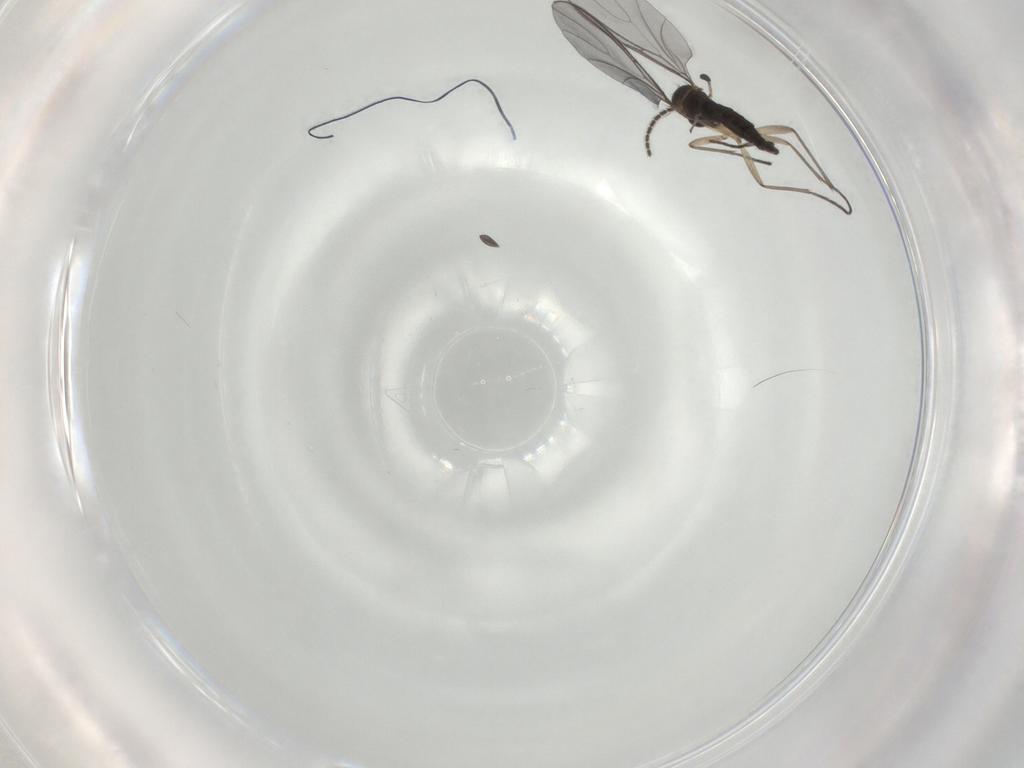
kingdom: Animalia
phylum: Arthropoda
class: Insecta
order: Diptera
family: Sciaridae
